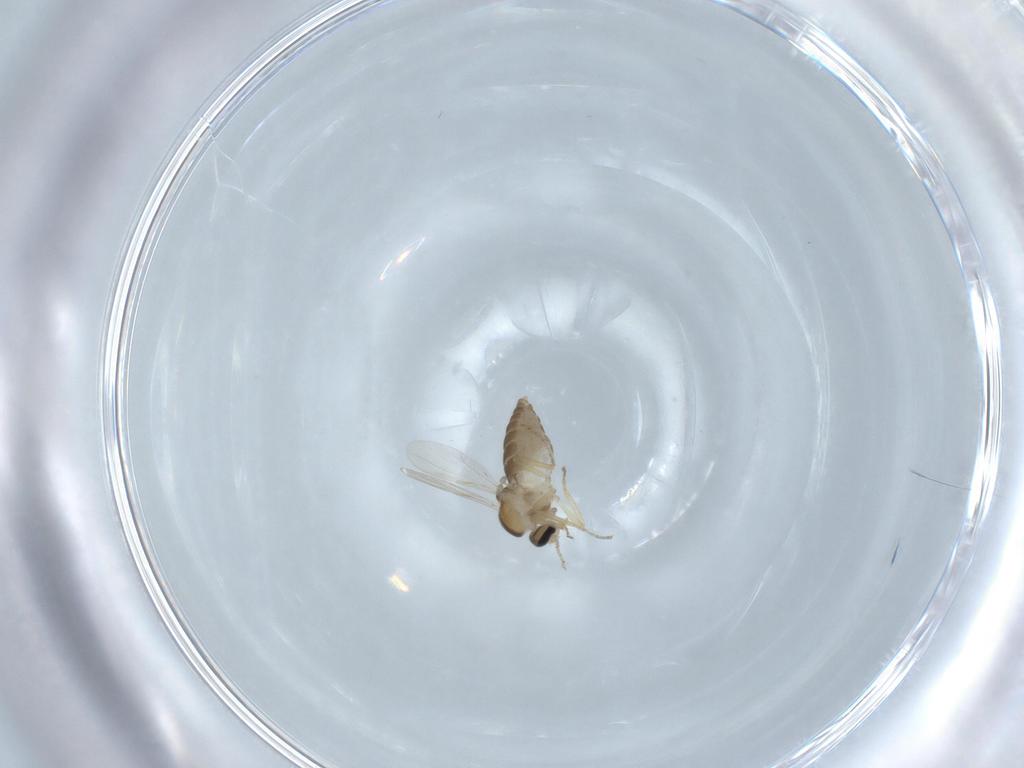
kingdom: Animalia
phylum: Arthropoda
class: Insecta
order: Diptera
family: Ceratopogonidae
